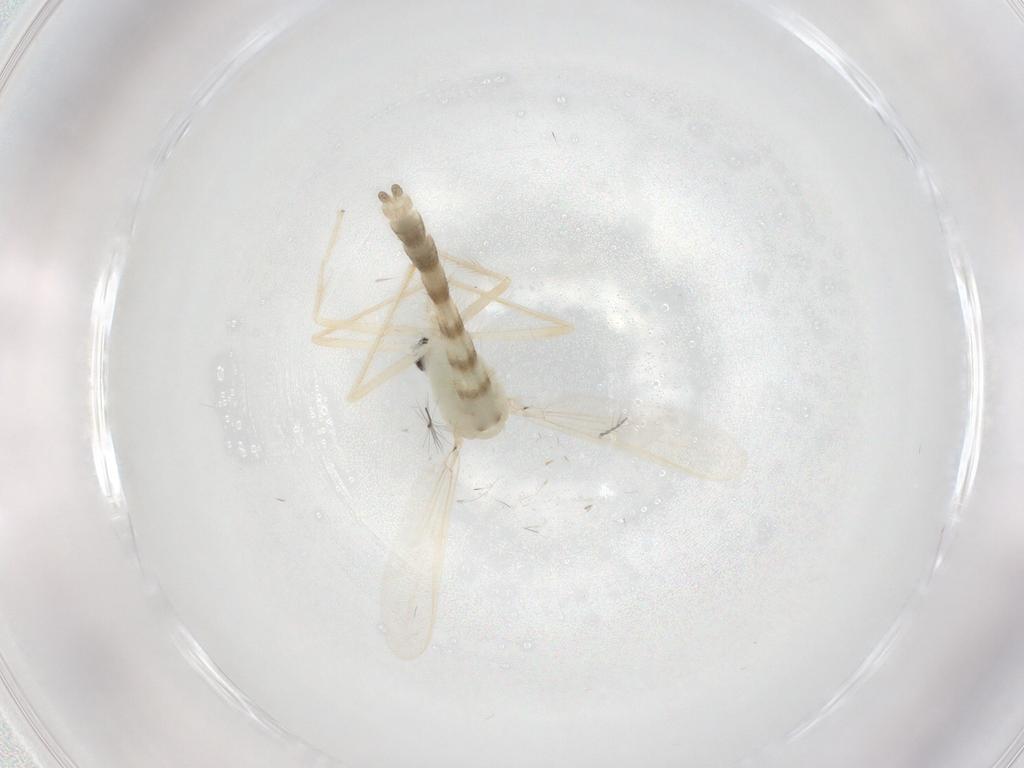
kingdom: Animalia
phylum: Arthropoda
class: Insecta
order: Diptera
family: Chironomidae
